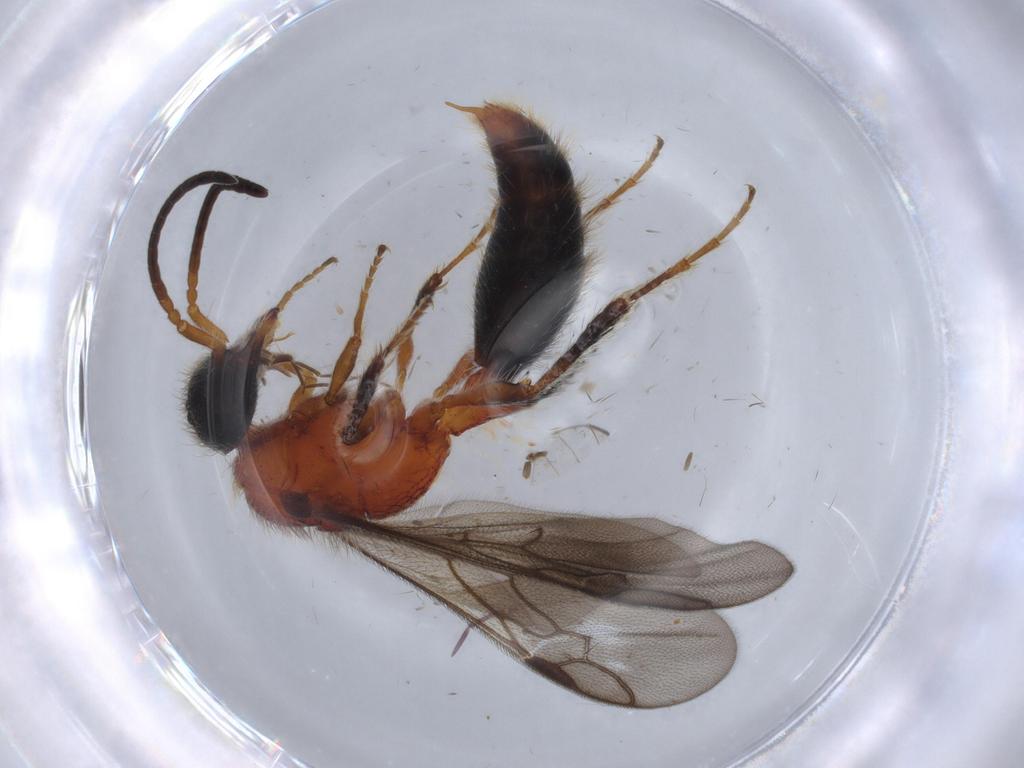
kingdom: Animalia
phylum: Arthropoda
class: Insecta
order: Hymenoptera
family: Mutillidae
